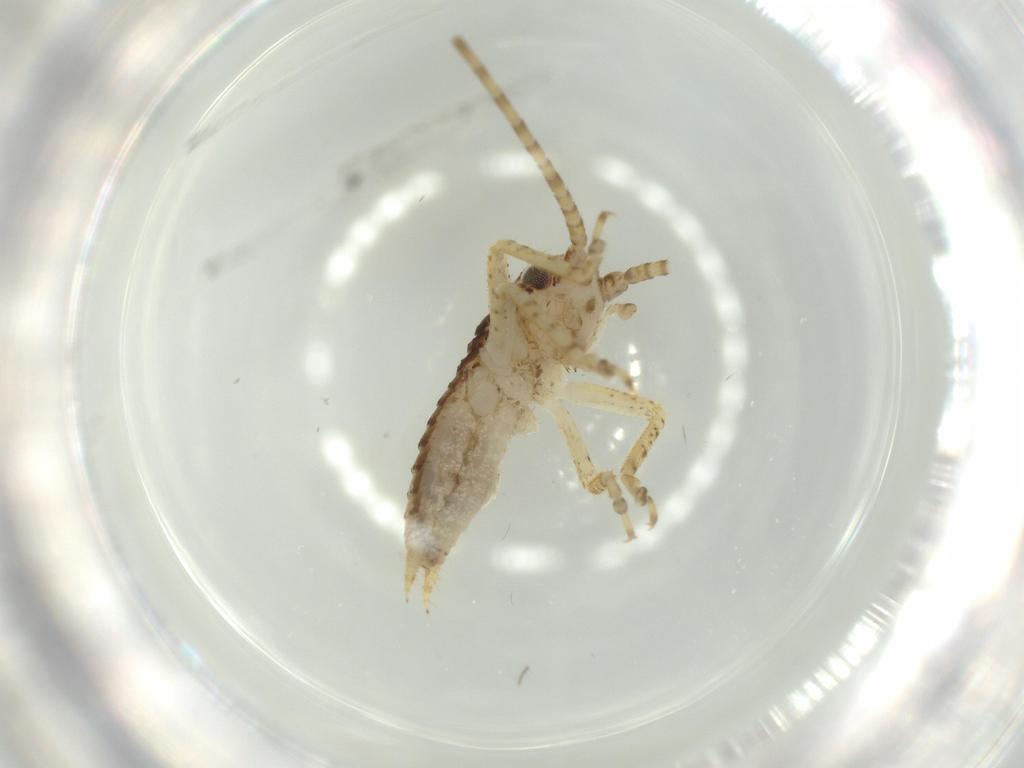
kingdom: Animalia
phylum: Arthropoda
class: Insecta
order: Orthoptera
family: Gryllidae
